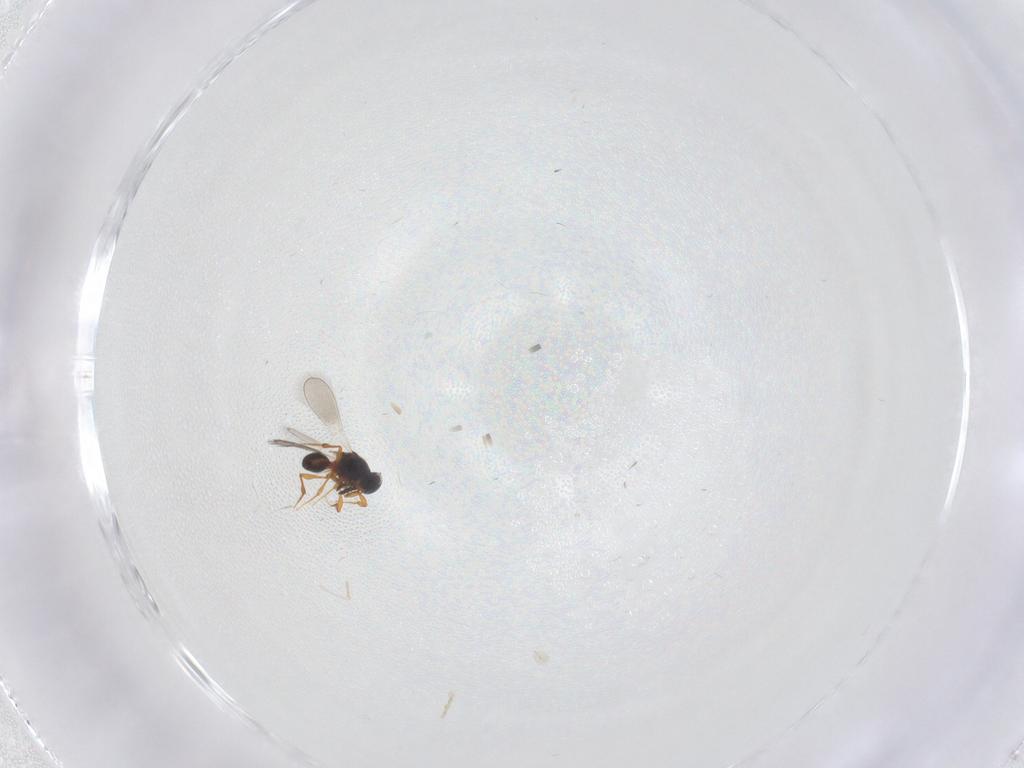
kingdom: Animalia
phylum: Arthropoda
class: Insecta
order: Hymenoptera
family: Platygastridae
